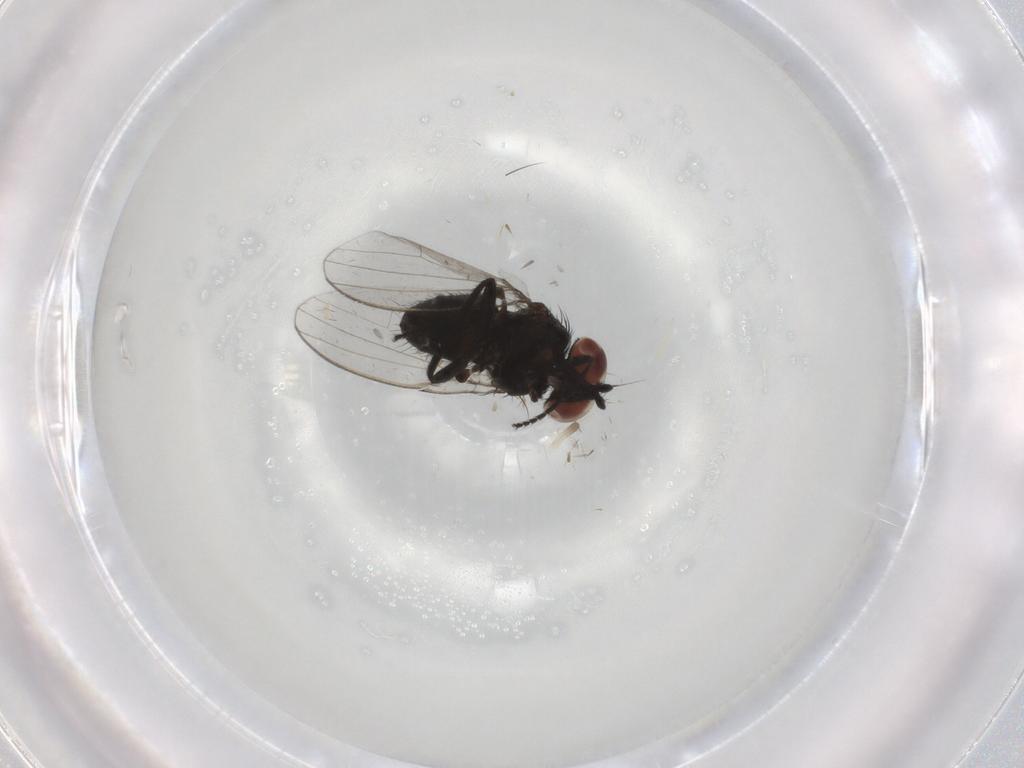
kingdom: Animalia
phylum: Arthropoda
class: Insecta
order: Diptera
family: Milichiidae
